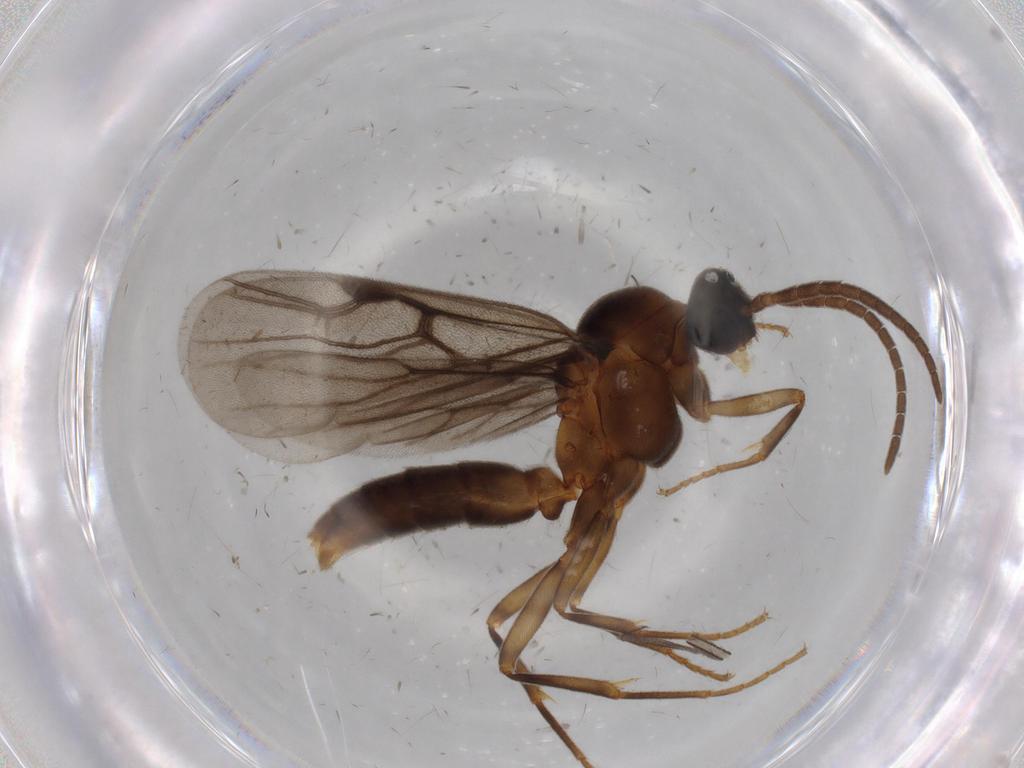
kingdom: Animalia
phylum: Arthropoda
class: Insecta
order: Hymenoptera
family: Formicidae
